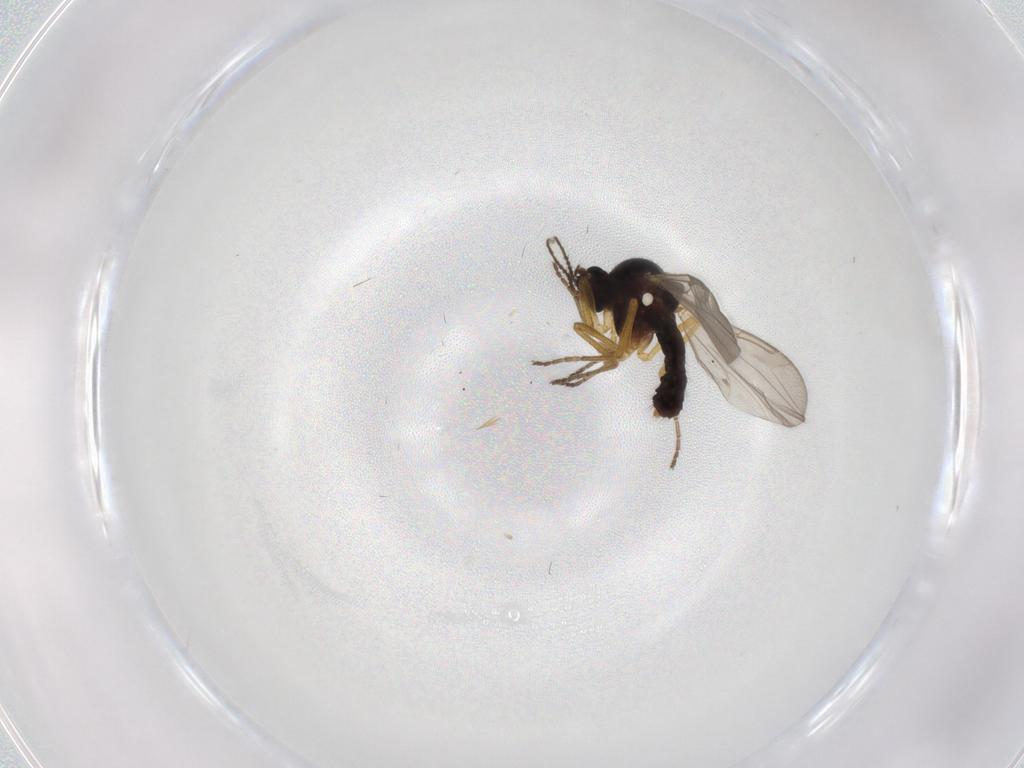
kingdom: Animalia
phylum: Arthropoda
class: Insecta
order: Diptera
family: Ceratopogonidae
